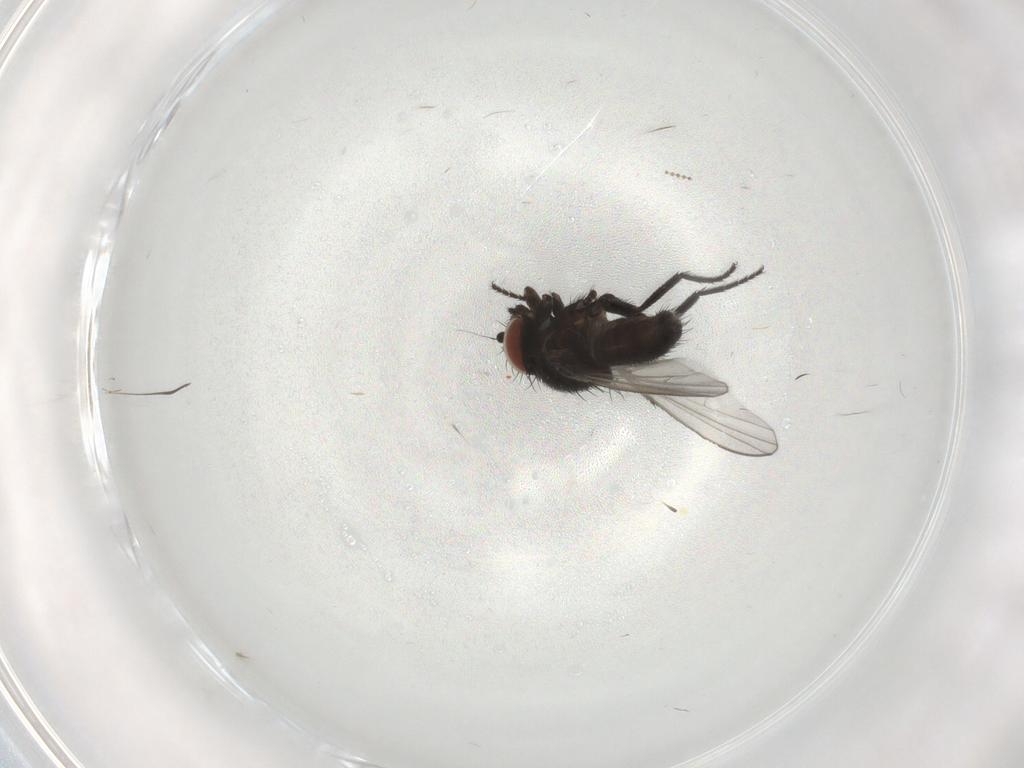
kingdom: Animalia
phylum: Arthropoda
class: Insecta
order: Diptera
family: Milichiidae
